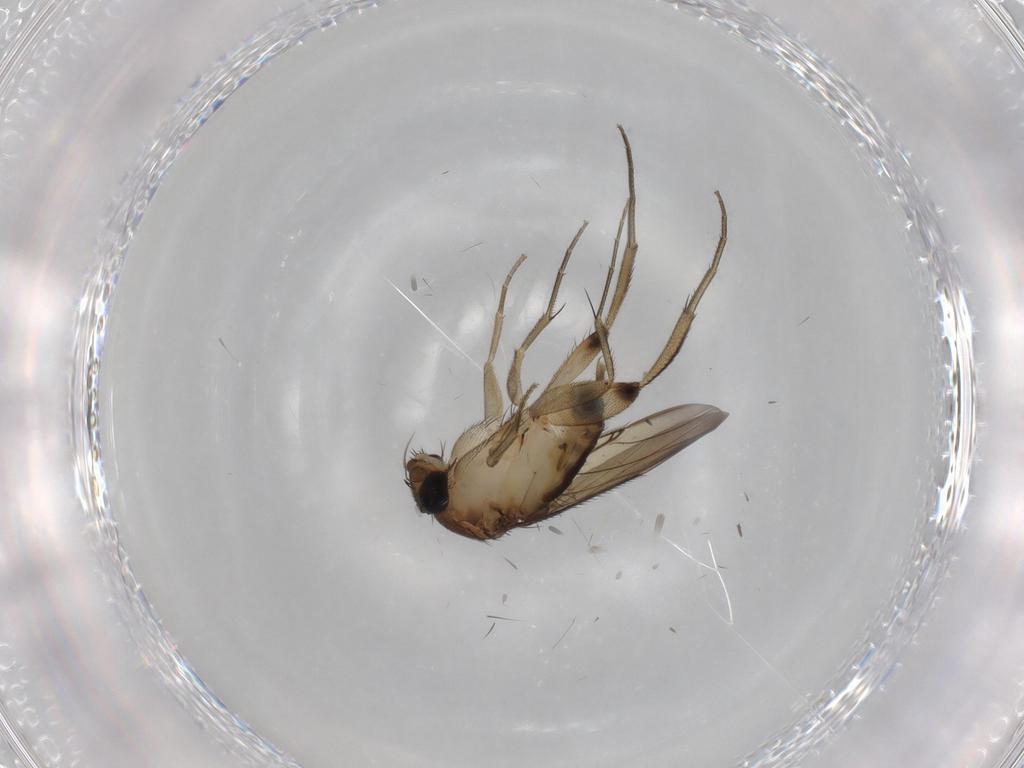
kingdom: Animalia
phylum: Arthropoda
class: Insecta
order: Diptera
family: Phoridae
